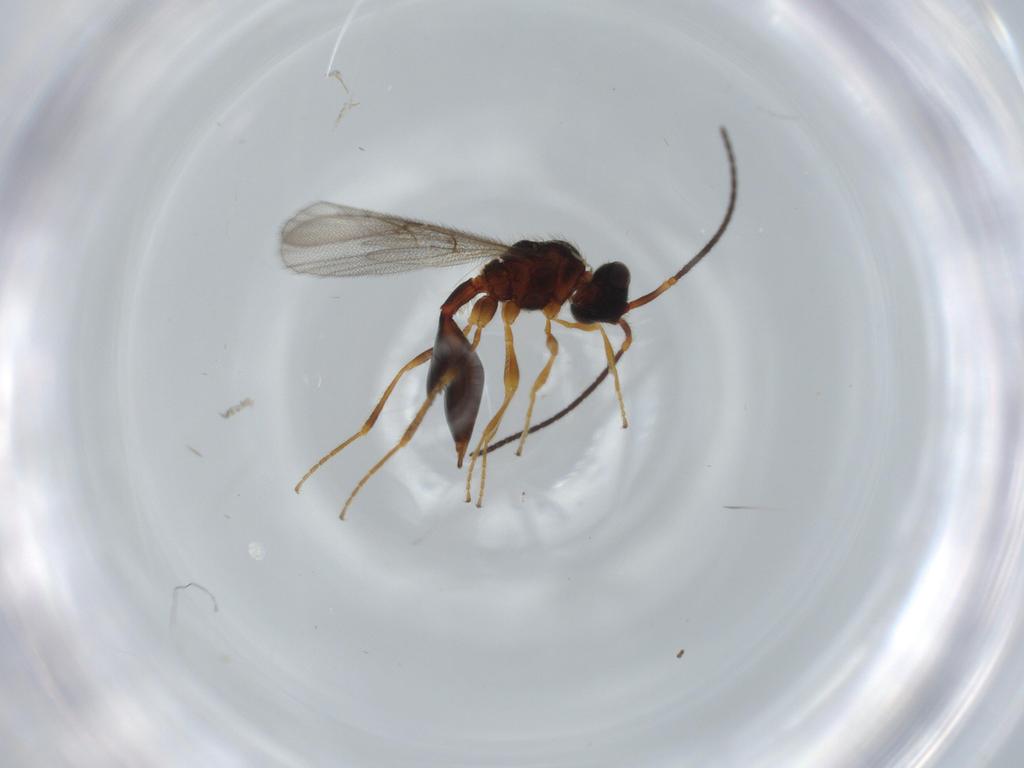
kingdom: Animalia
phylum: Arthropoda
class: Insecta
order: Hymenoptera
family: Diapriidae
